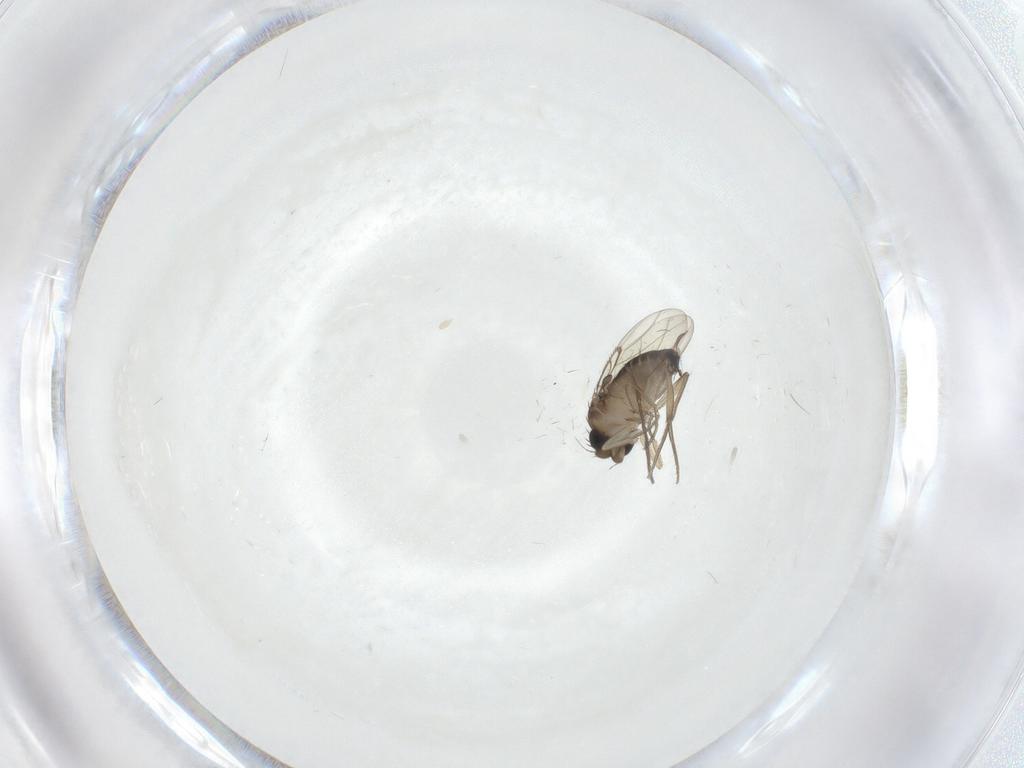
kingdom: Animalia
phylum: Arthropoda
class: Insecta
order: Diptera
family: Sciaridae
